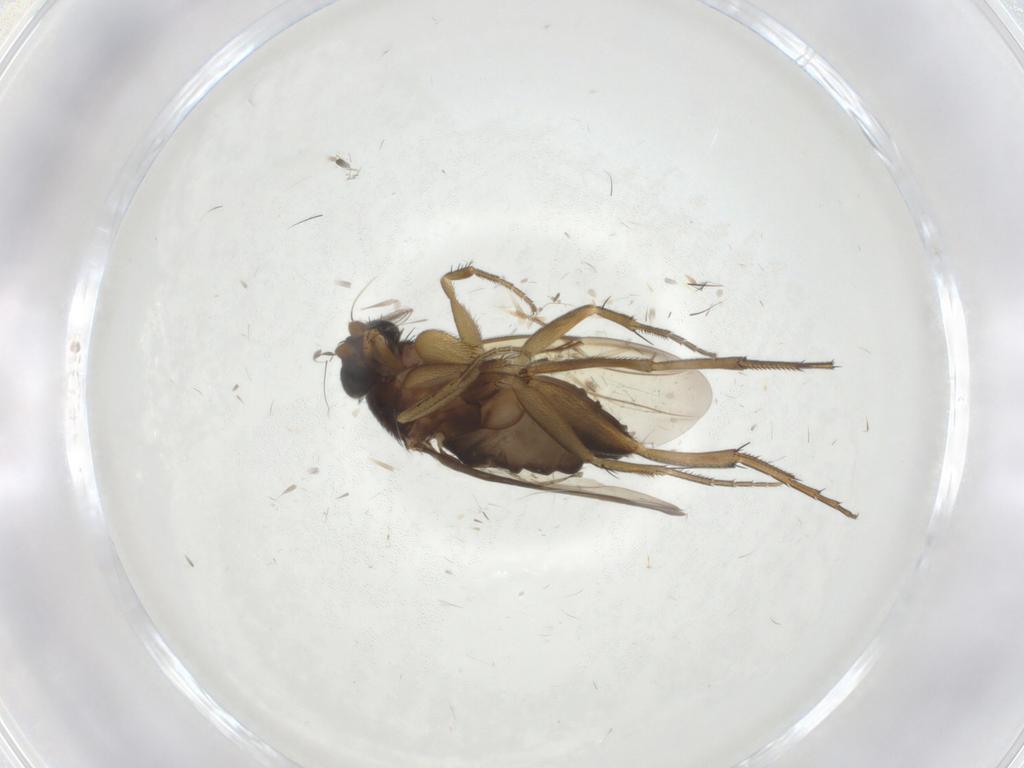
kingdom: Animalia
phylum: Arthropoda
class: Insecta
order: Diptera
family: Phoridae
